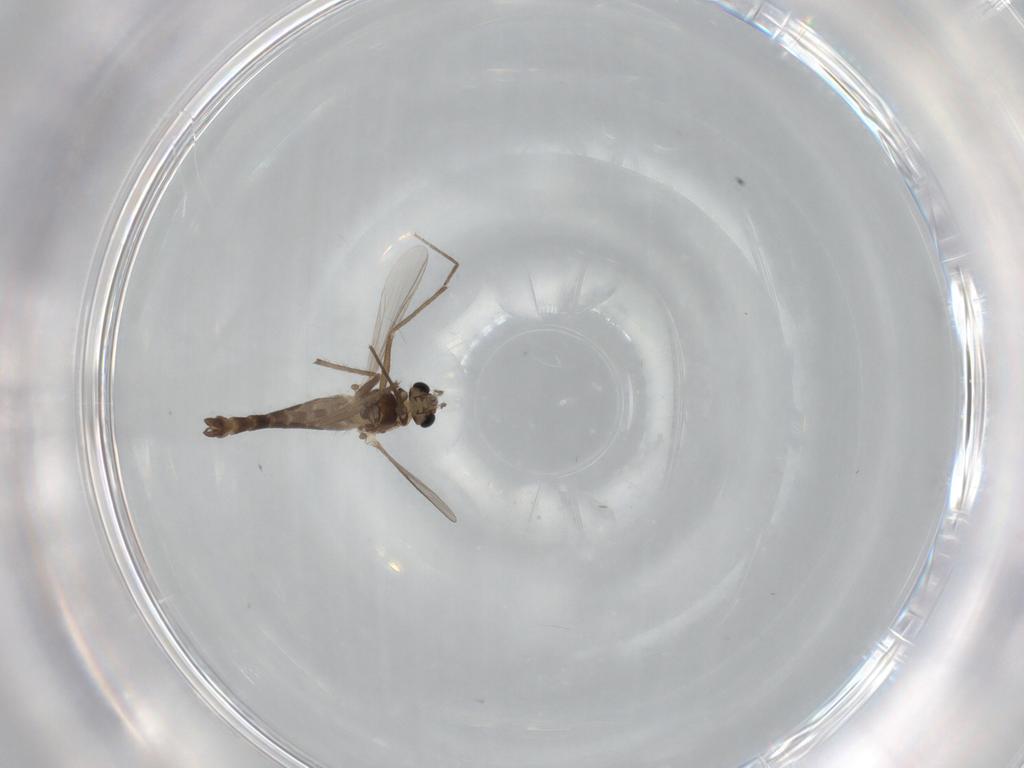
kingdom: Animalia
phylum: Arthropoda
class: Insecta
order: Diptera
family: Chironomidae
